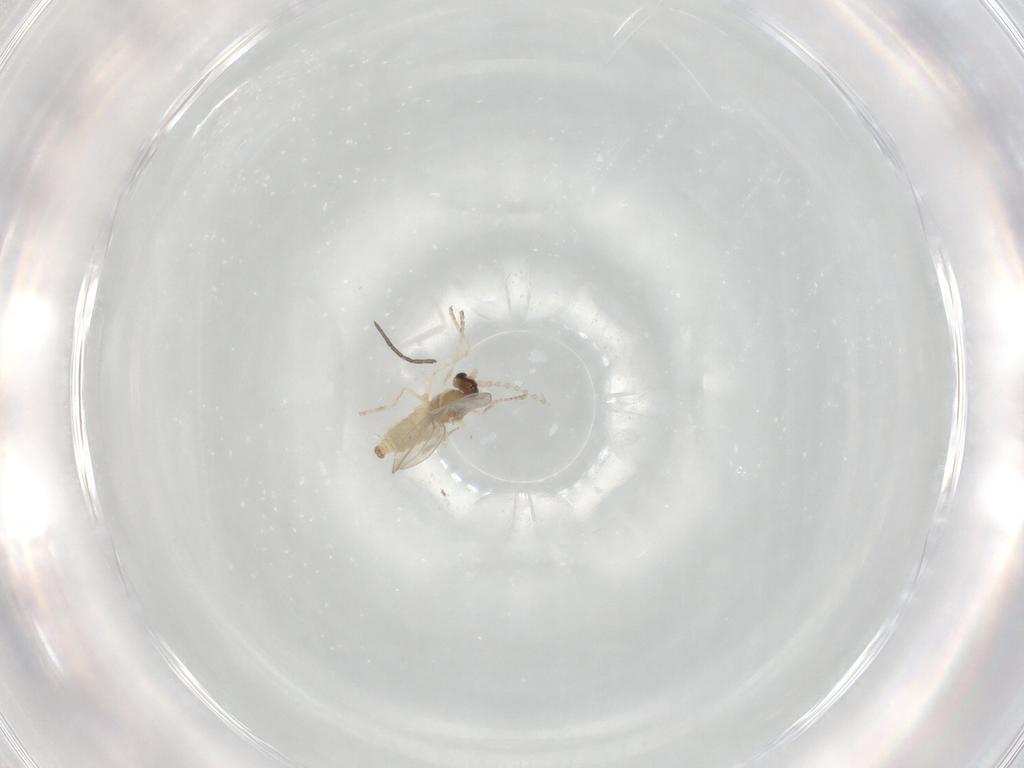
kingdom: Animalia
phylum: Arthropoda
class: Insecta
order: Diptera
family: Cecidomyiidae
